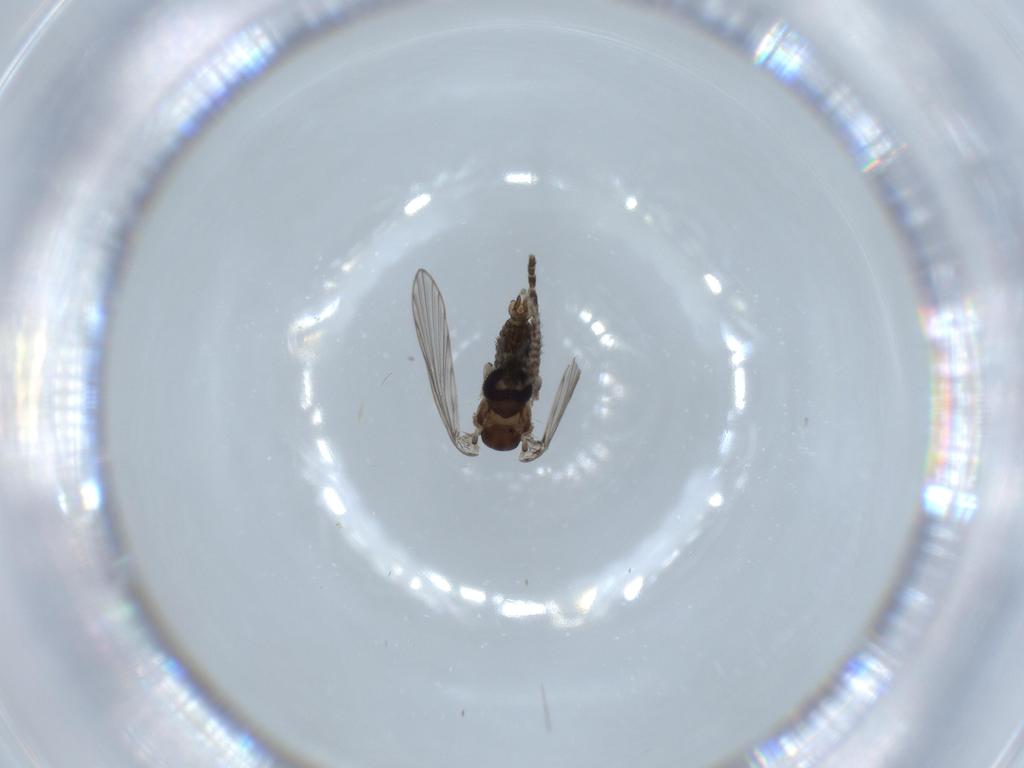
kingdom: Animalia
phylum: Arthropoda
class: Insecta
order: Diptera
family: Psychodidae
